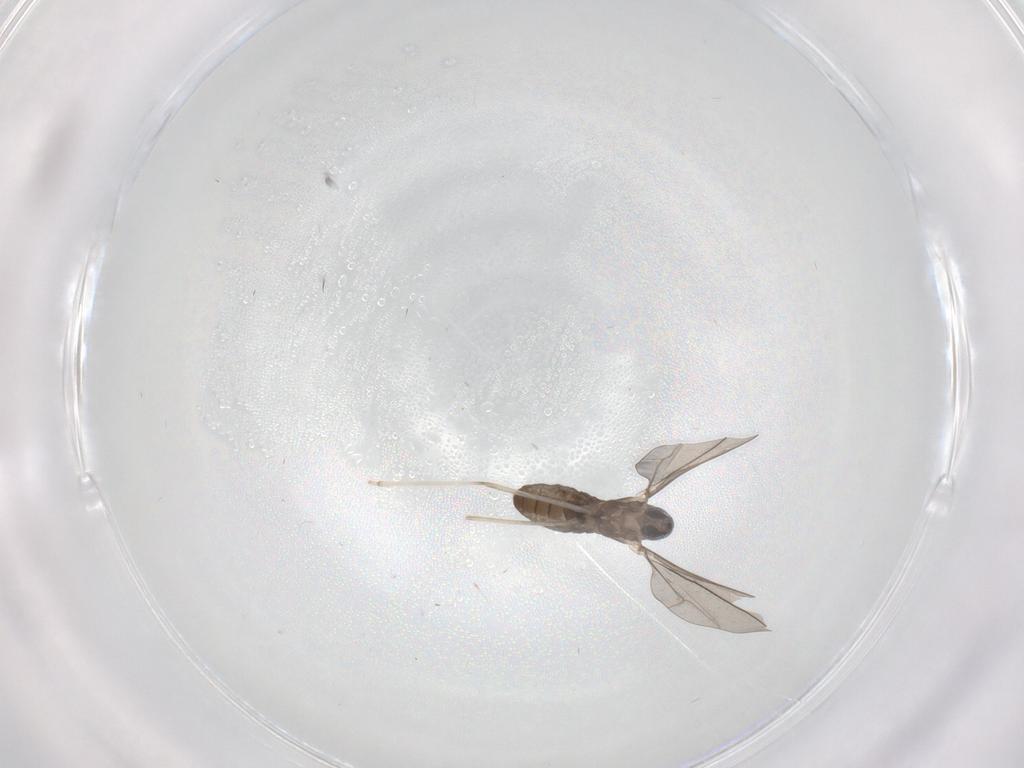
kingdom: Animalia
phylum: Arthropoda
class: Insecta
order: Diptera
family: Cecidomyiidae
